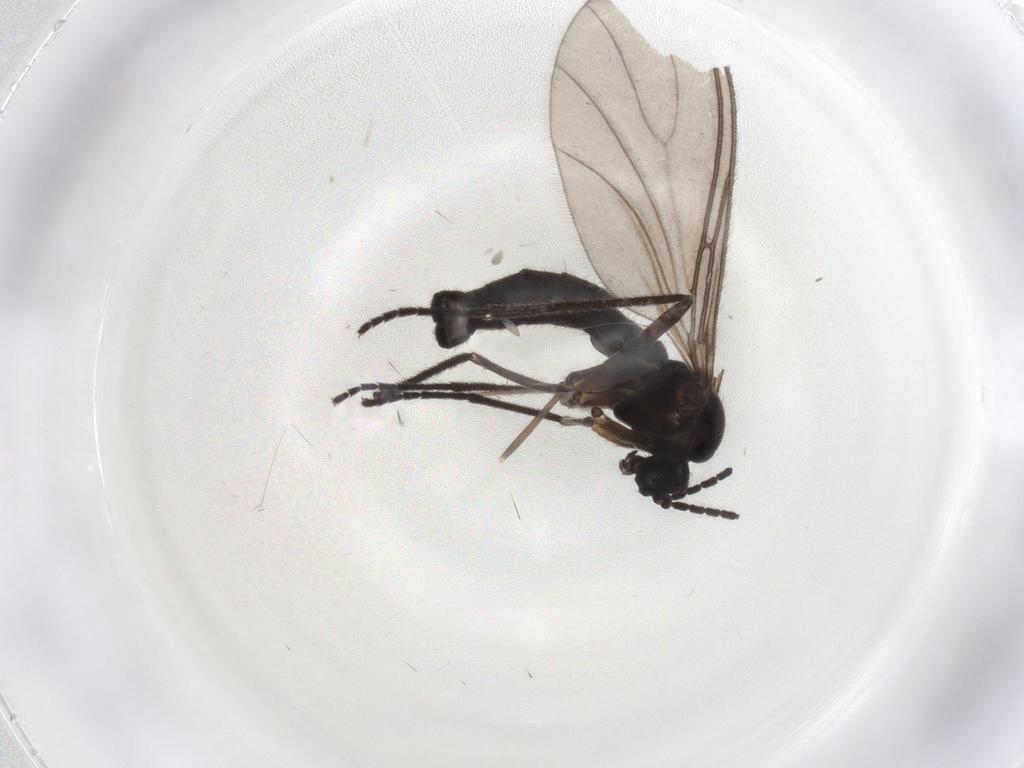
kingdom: Animalia
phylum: Arthropoda
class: Insecta
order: Diptera
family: Sciaridae
